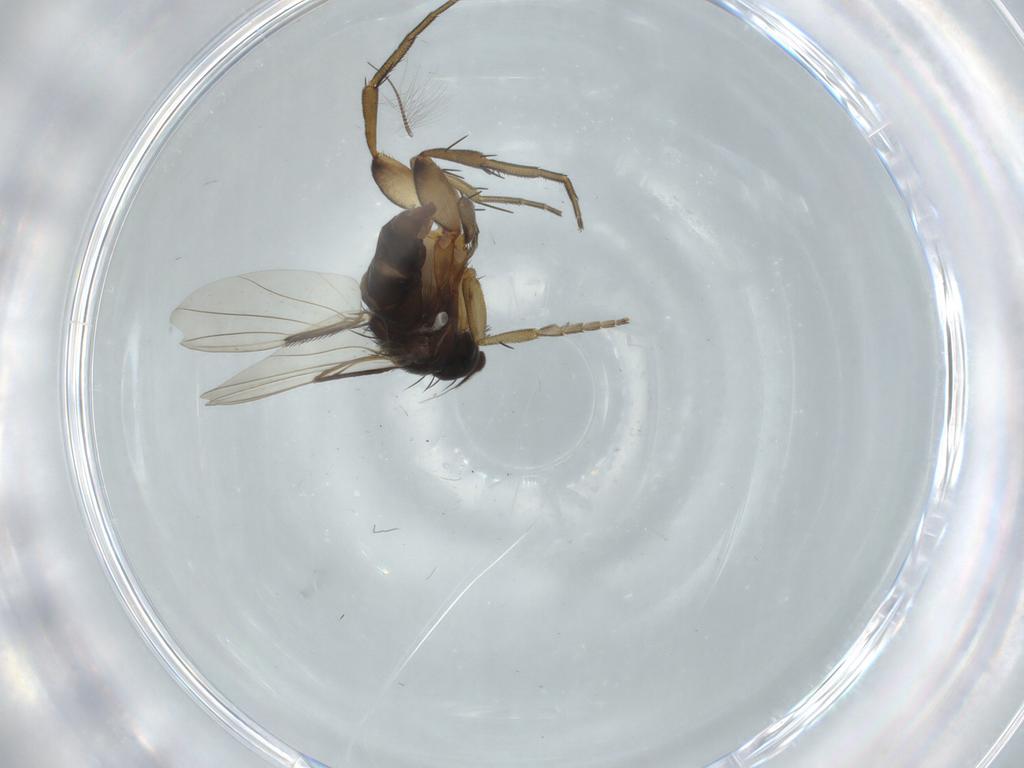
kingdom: Animalia
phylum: Arthropoda
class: Insecta
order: Diptera
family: Phoridae
